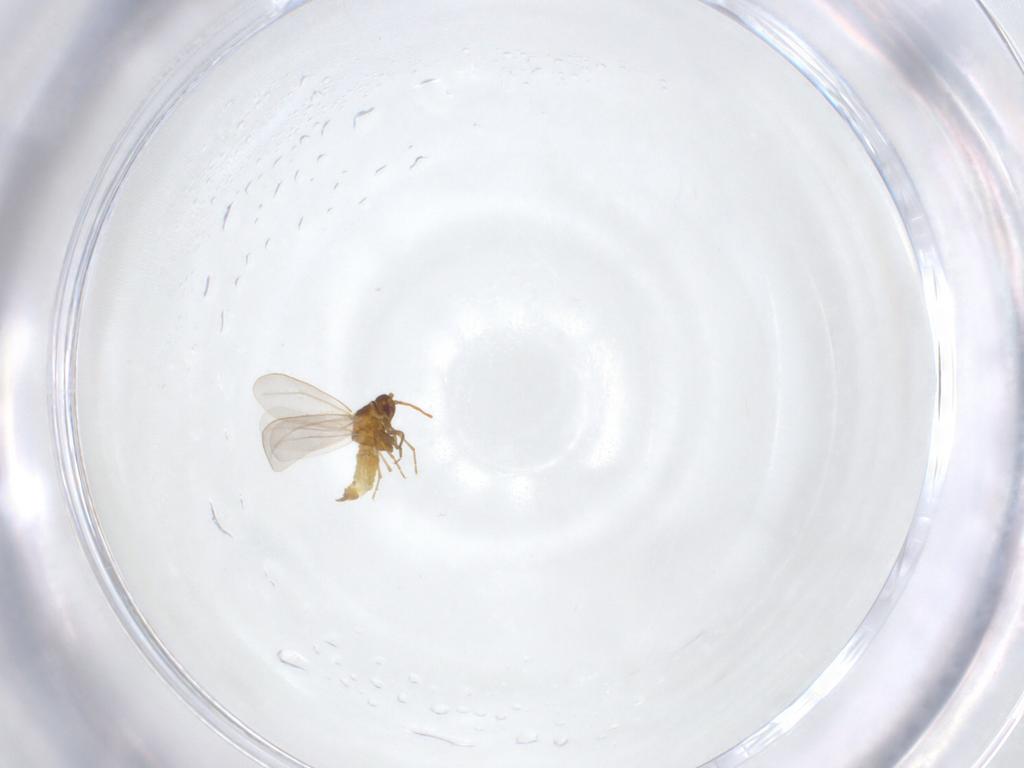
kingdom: Animalia
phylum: Arthropoda
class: Insecta
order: Hemiptera
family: Aleyrodidae
